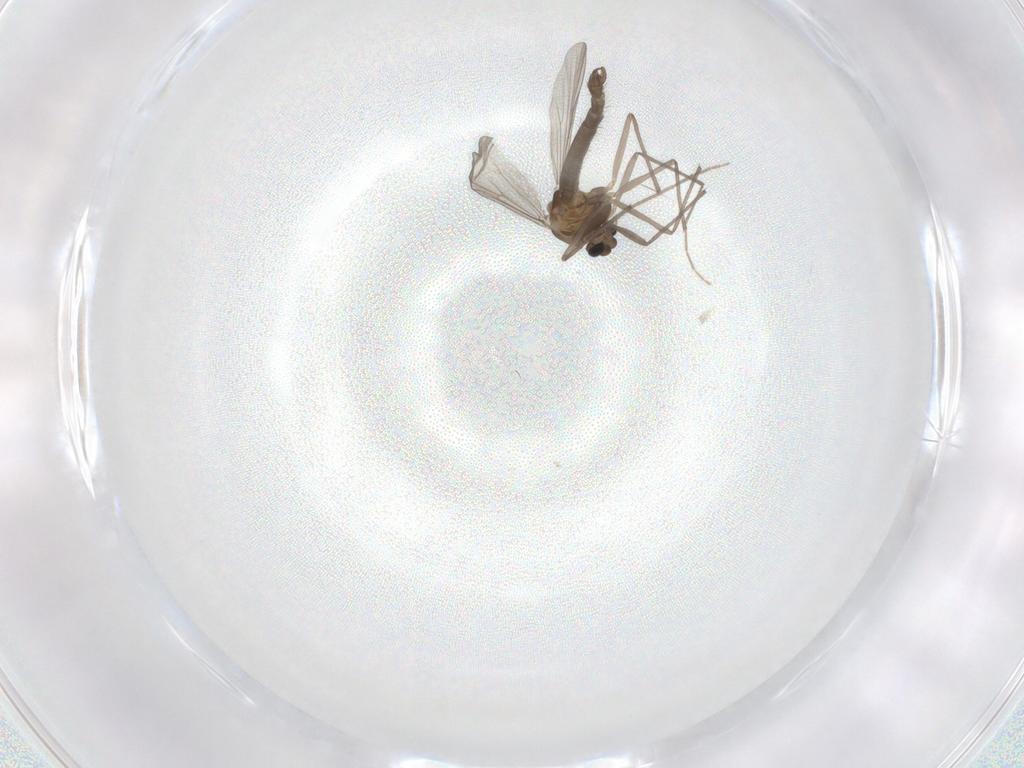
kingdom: Animalia
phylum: Arthropoda
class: Insecta
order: Diptera
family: Chironomidae
